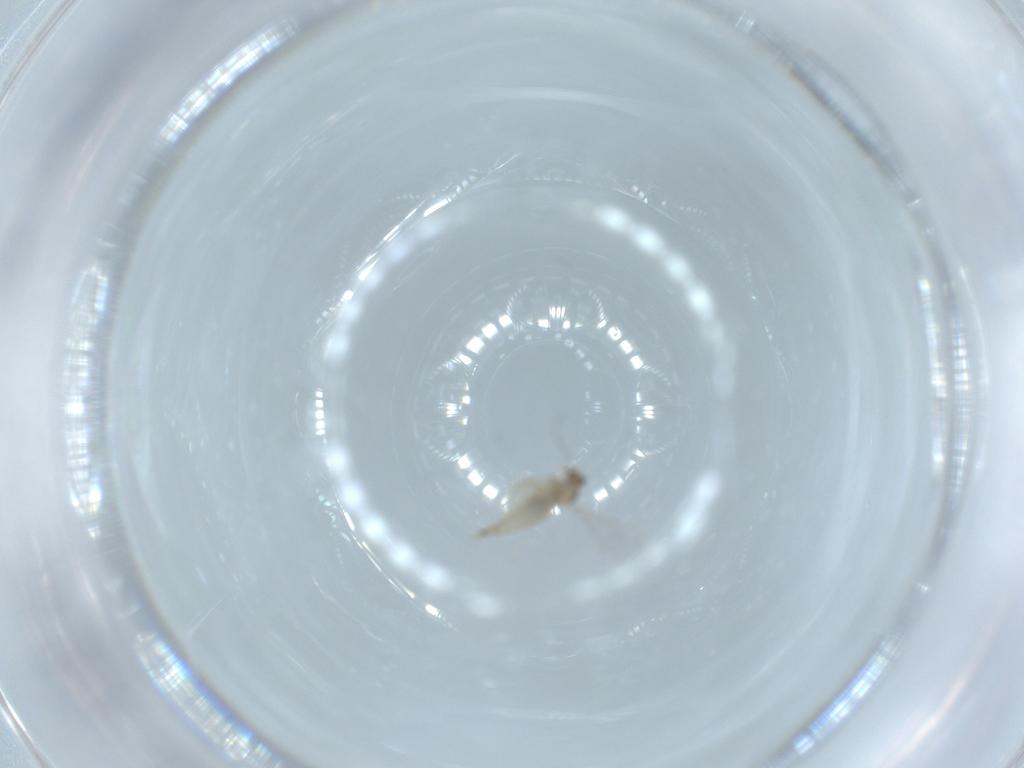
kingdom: Animalia
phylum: Arthropoda
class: Insecta
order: Diptera
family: Cecidomyiidae
